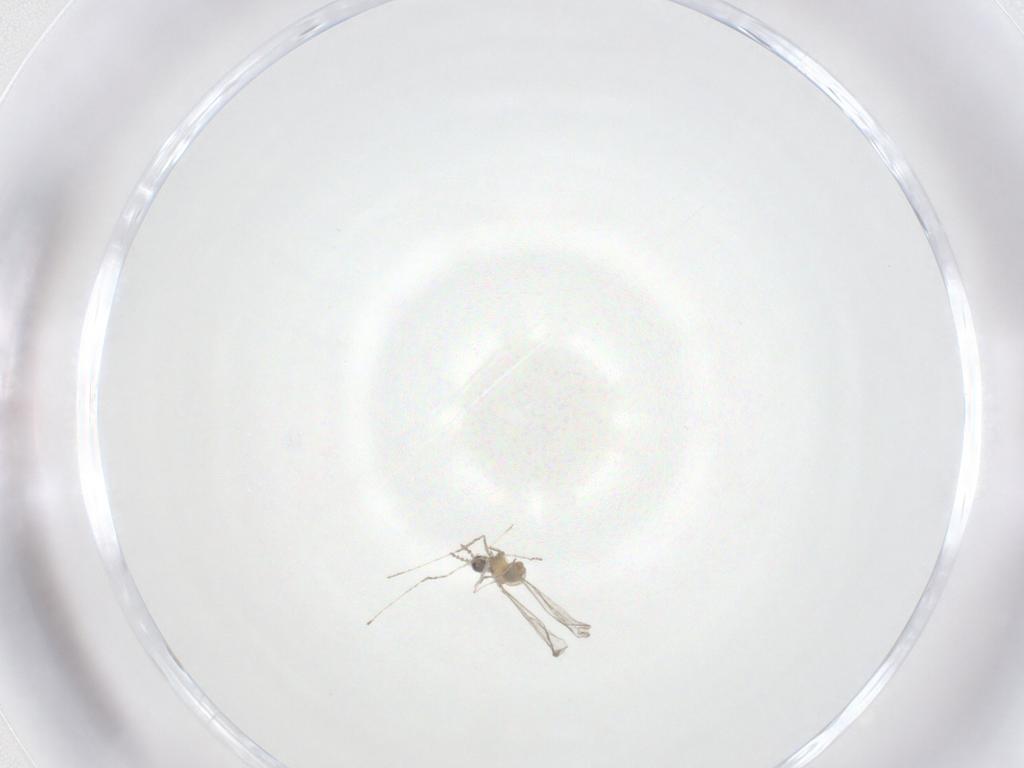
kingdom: Animalia
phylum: Arthropoda
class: Insecta
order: Diptera
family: Cecidomyiidae
